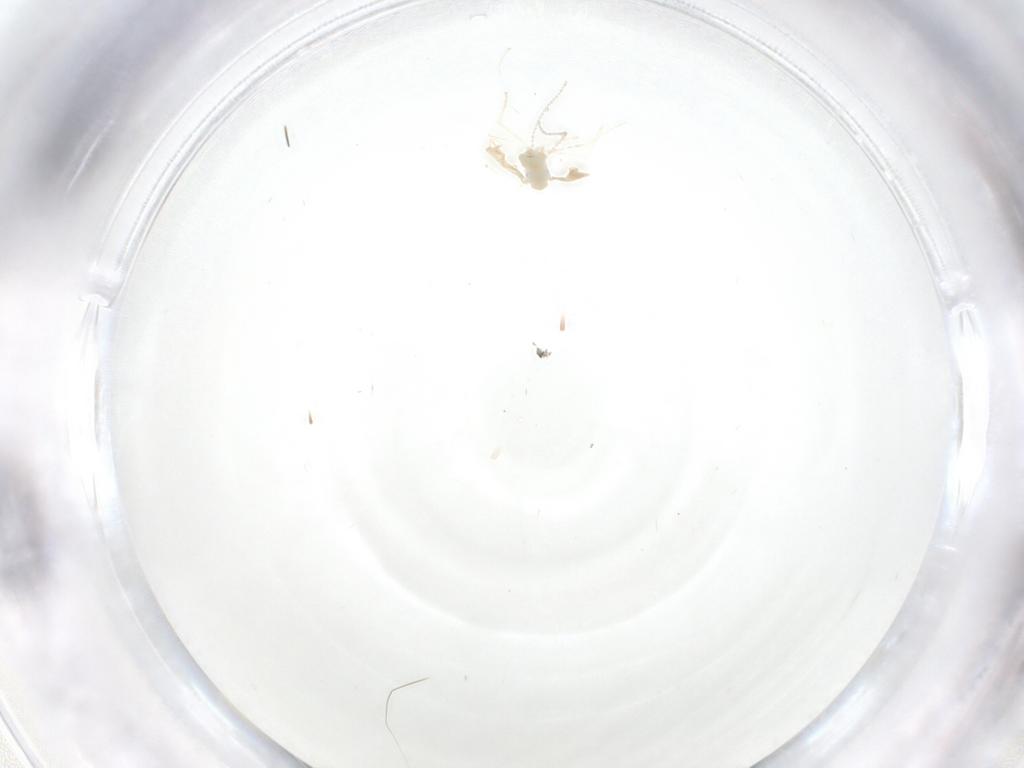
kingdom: Animalia
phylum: Arthropoda
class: Insecta
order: Diptera
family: Cecidomyiidae
